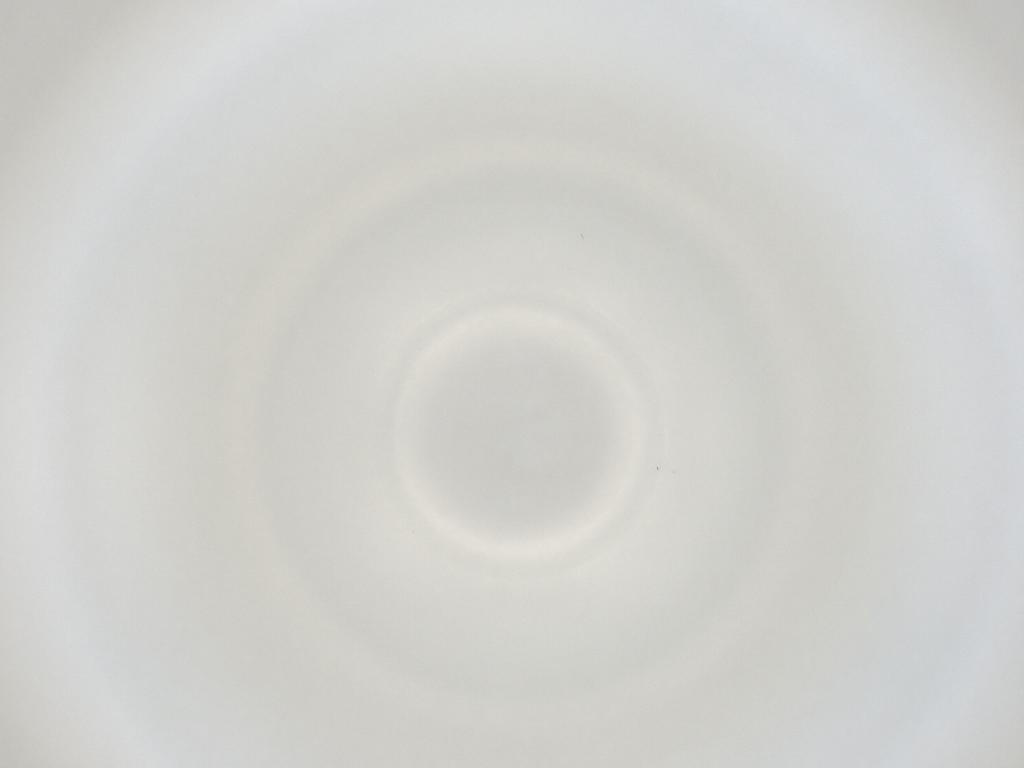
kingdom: Animalia
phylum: Arthropoda
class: Insecta
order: Diptera
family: Cecidomyiidae
